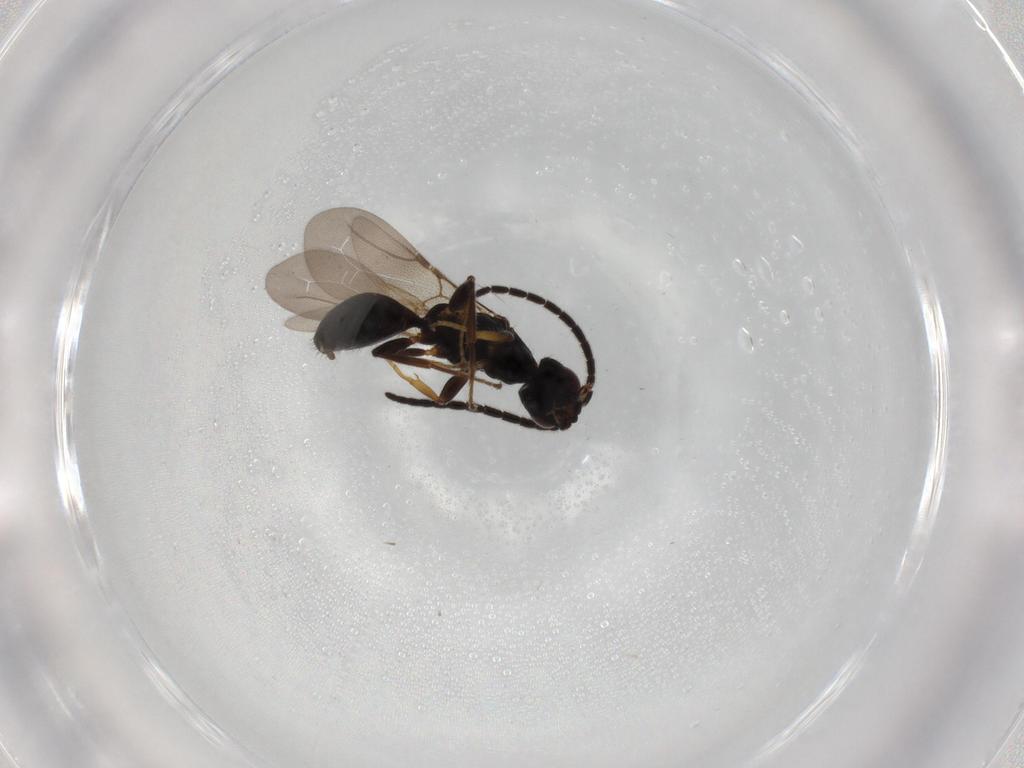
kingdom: Animalia
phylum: Arthropoda
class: Insecta
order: Hymenoptera
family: Bethylidae
